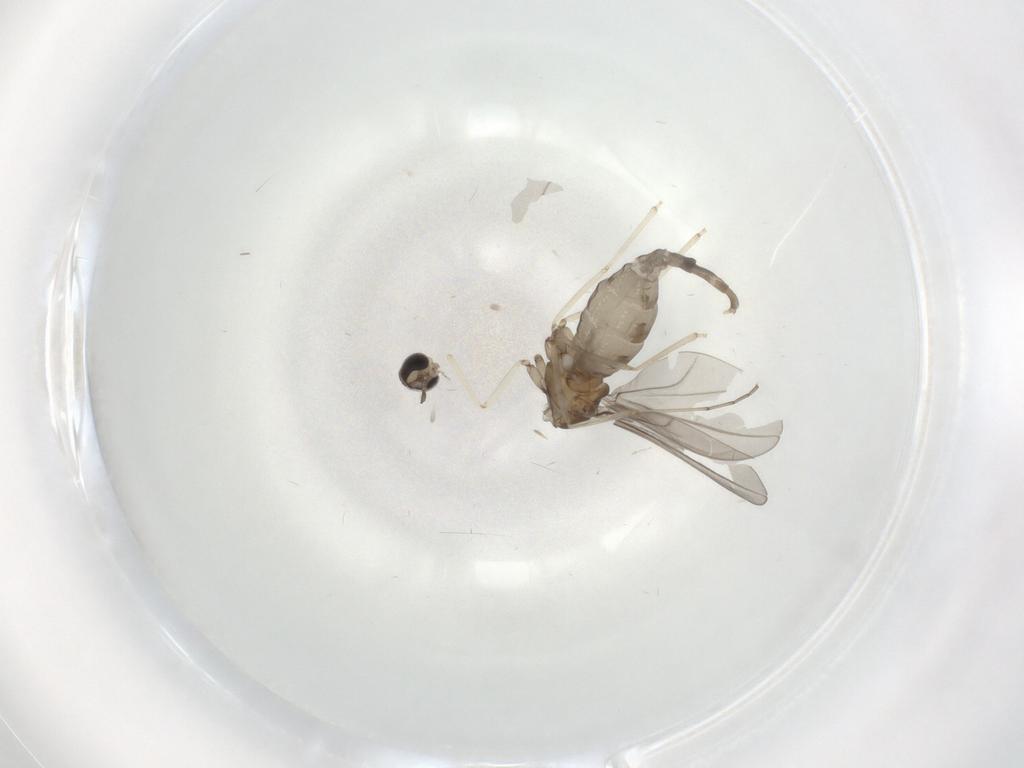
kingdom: Animalia
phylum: Arthropoda
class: Insecta
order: Diptera
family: Cecidomyiidae
